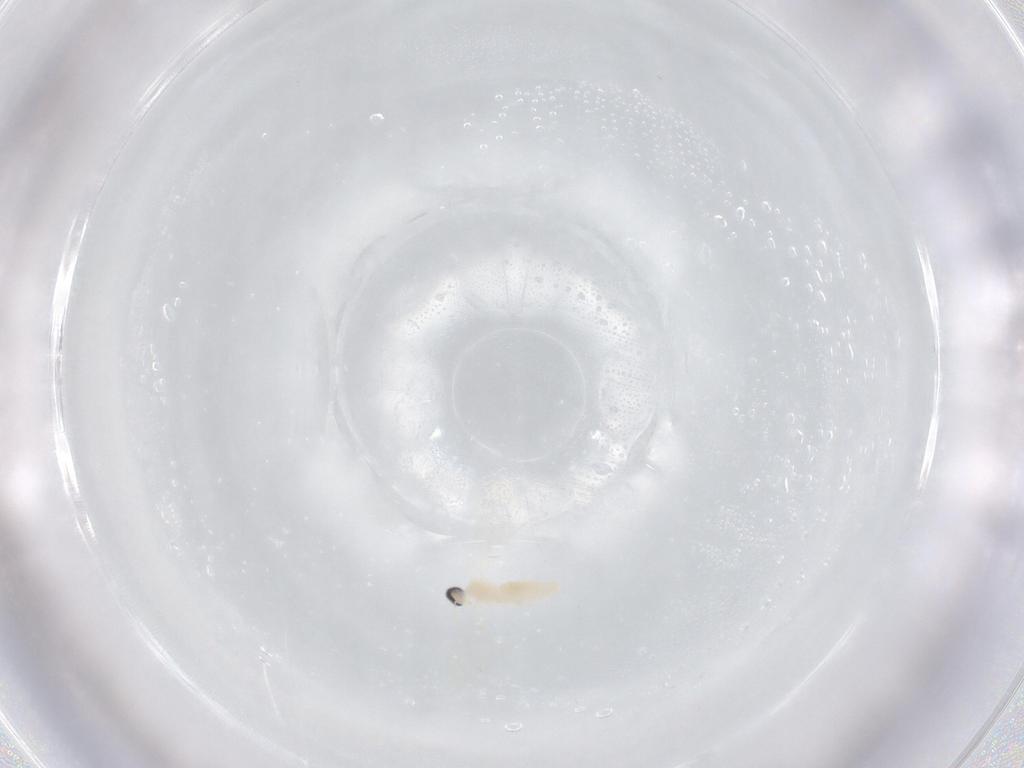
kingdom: Animalia
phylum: Arthropoda
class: Insecta
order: Diptera
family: Cecidomyiidae
